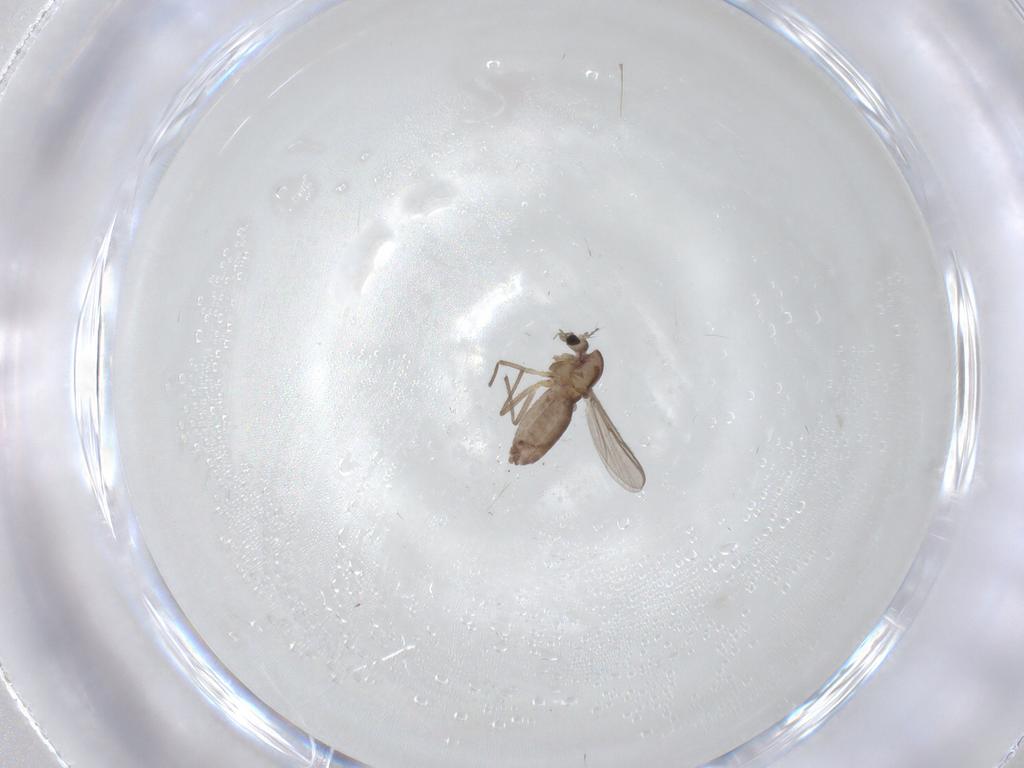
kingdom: Animalia
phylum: Arthropoda
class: Insecta
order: Diptera
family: Chironomidae
